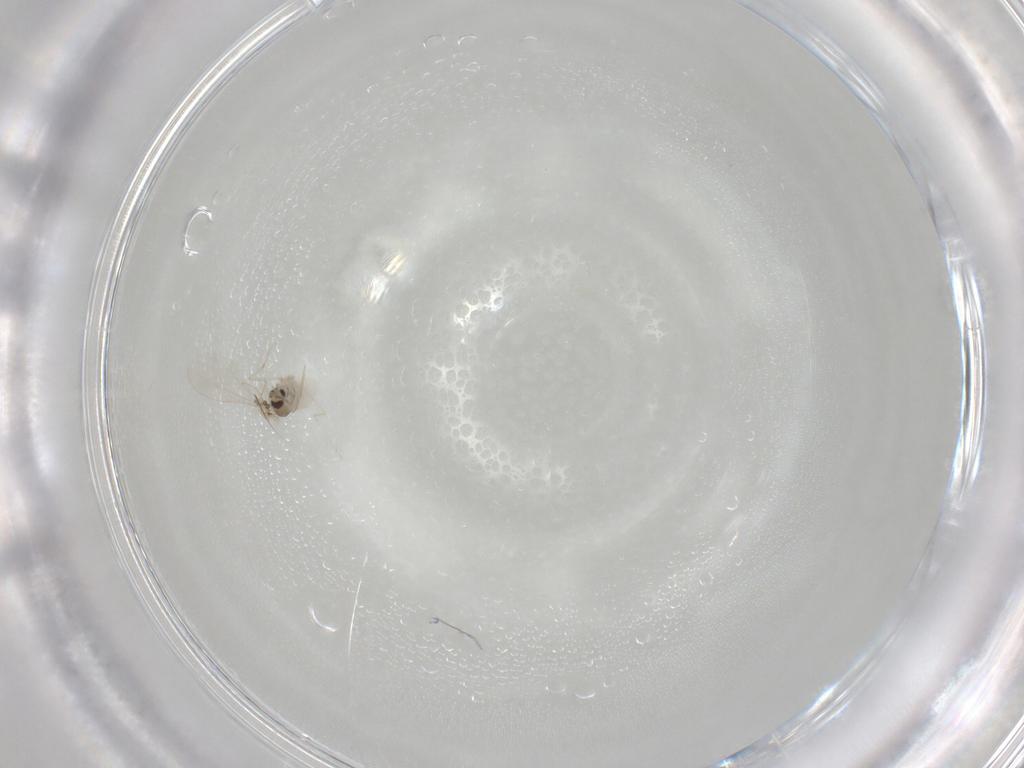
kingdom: Animalia
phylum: Arthropoda
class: Insecta
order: Diptera
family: Cecidomyiidae
